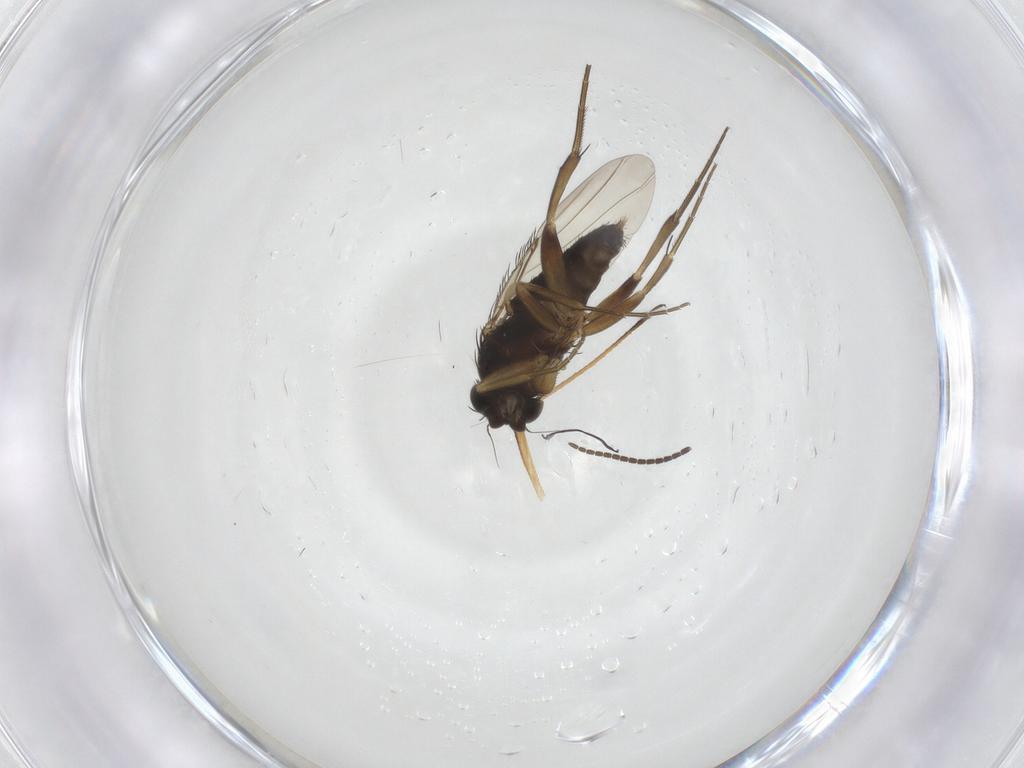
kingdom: Animalia
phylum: Arthropoda
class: Insecta
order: Diptera
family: Phoridae
